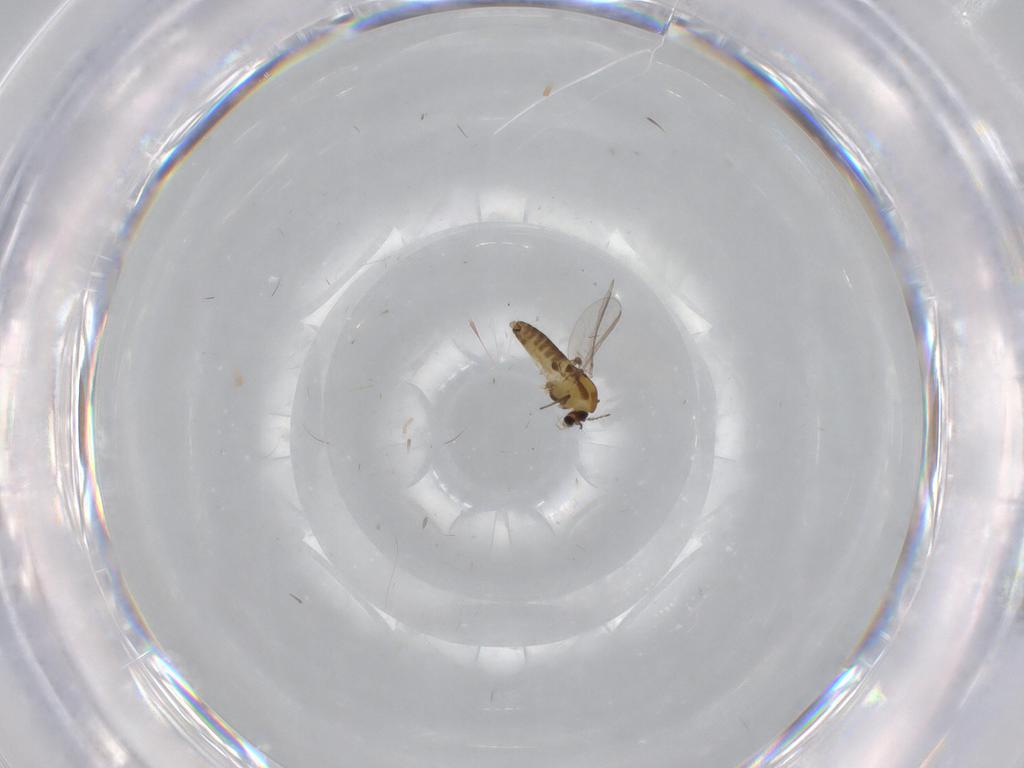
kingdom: Animalia
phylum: Arthropoda
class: Insecta
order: Diptera
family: Cecidomyiidae
